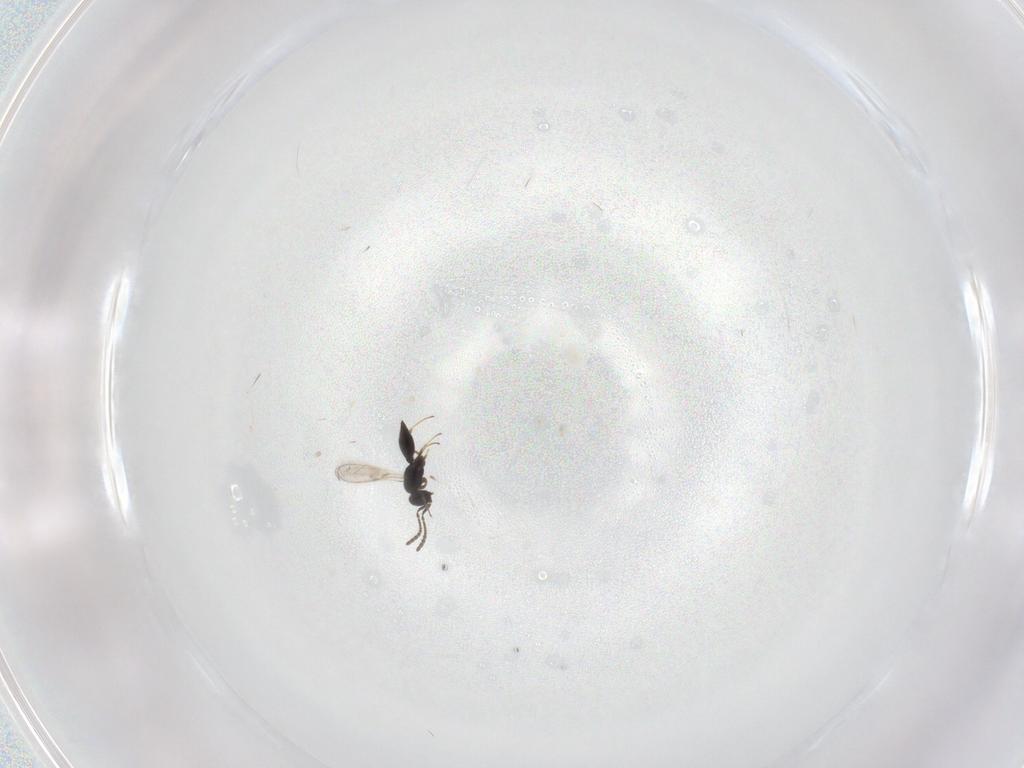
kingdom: Animalia
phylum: Arthropoda
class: Insecta
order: Hymenoptera
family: Scelionidae
